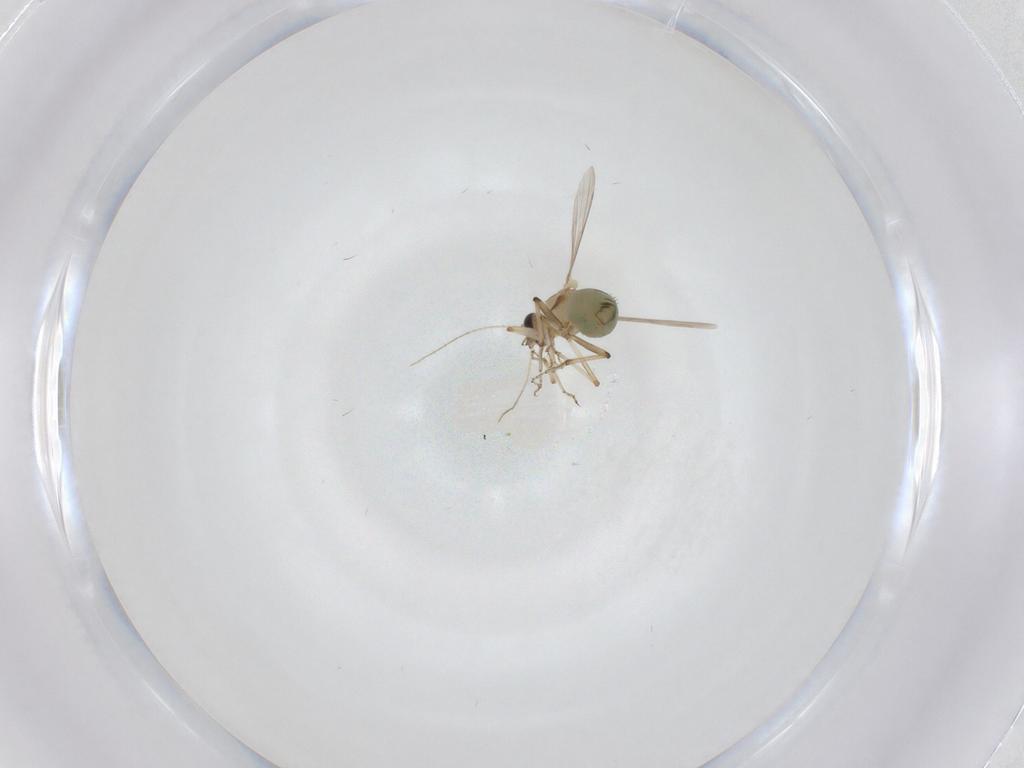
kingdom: Animalia
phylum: Arthropoda
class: Insecta
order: Diptera
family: Ceratopogonidae
